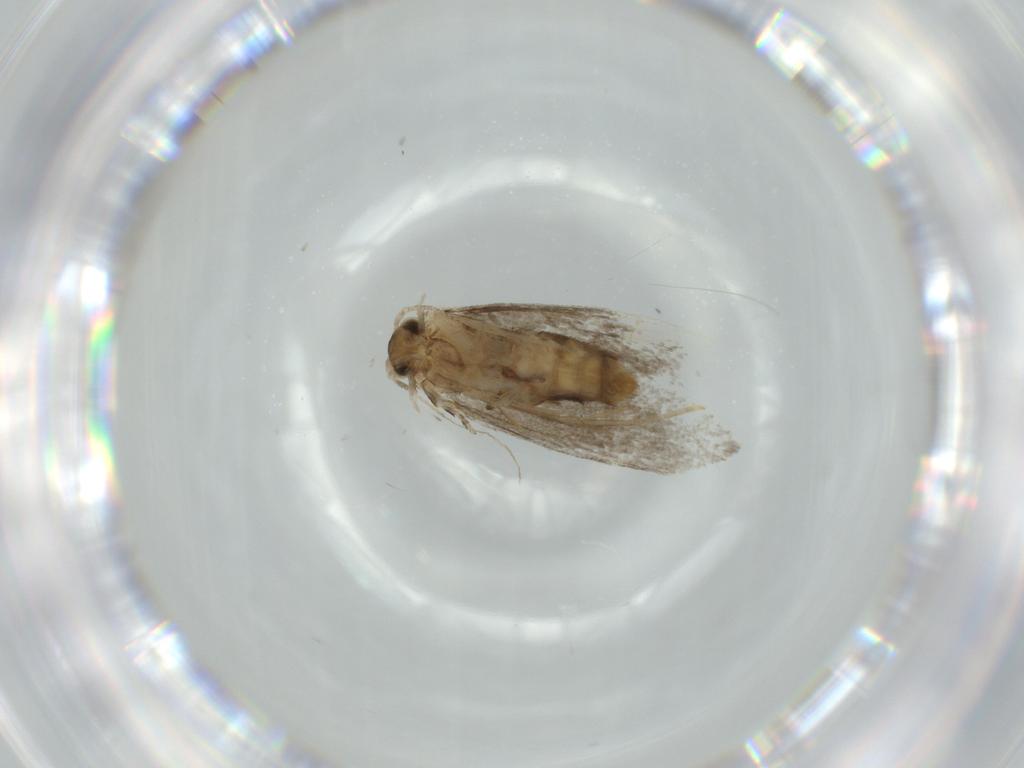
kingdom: Animalia
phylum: Arthropoda
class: Insecta
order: Lepidoptera
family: Tineidae
